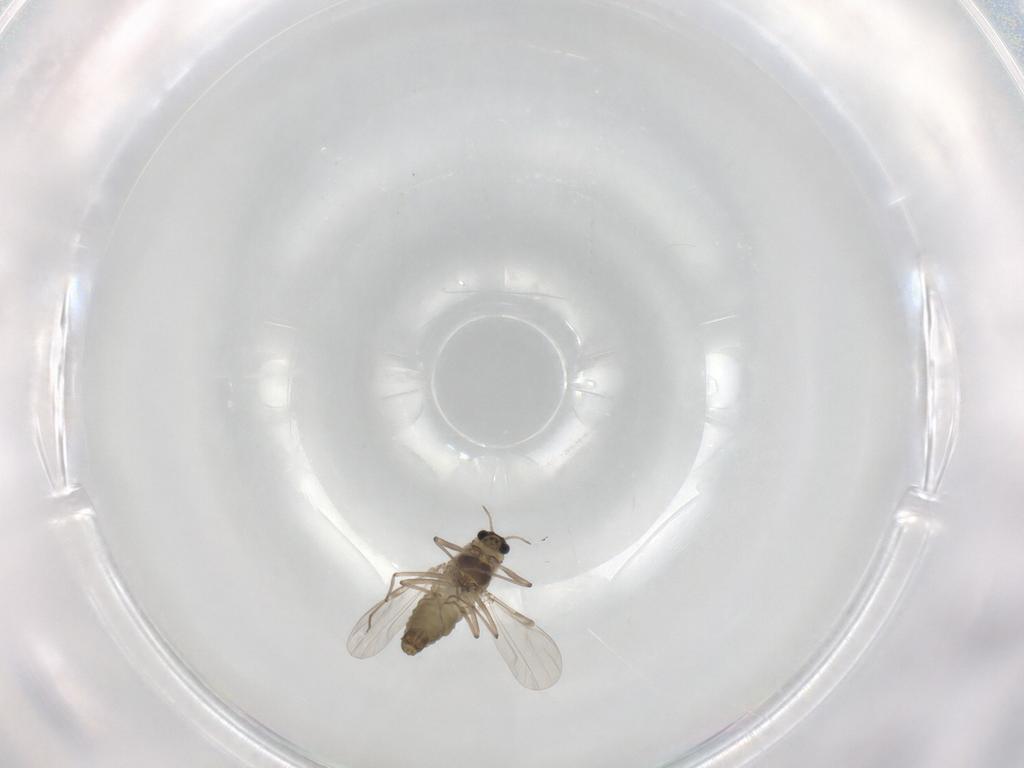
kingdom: Animalia
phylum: Arthropoda
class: Insecta
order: Diptera
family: Chironomidae
